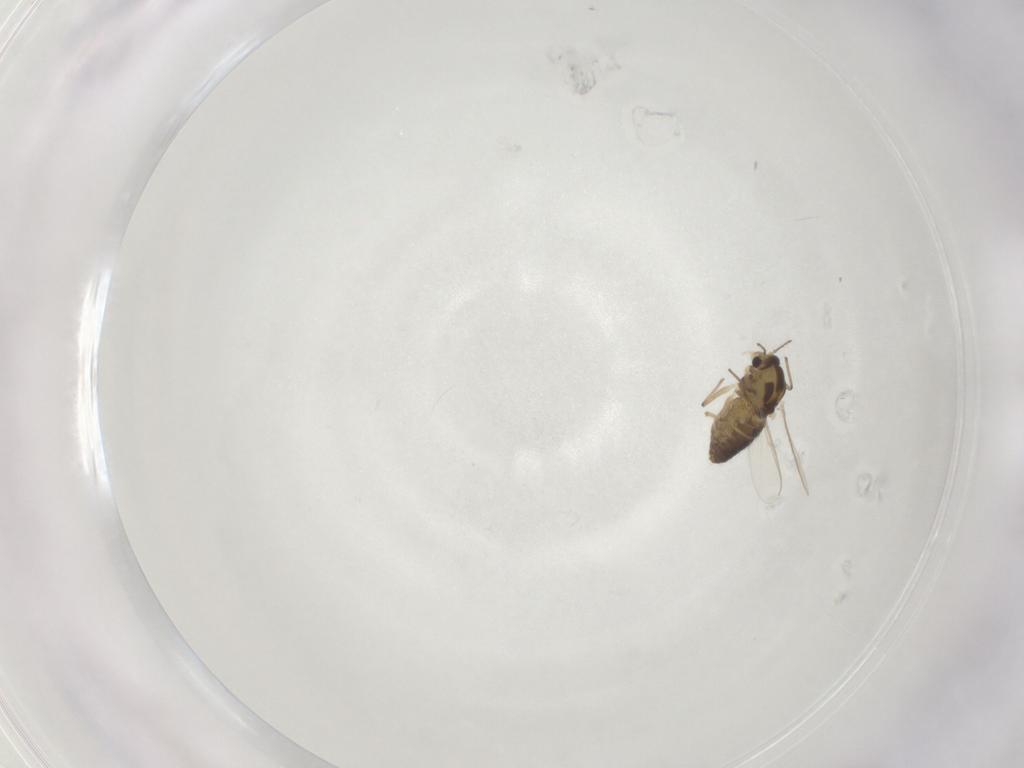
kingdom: Animalia
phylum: Arthropoda
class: Insecta
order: Diptera
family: Chironomidae
